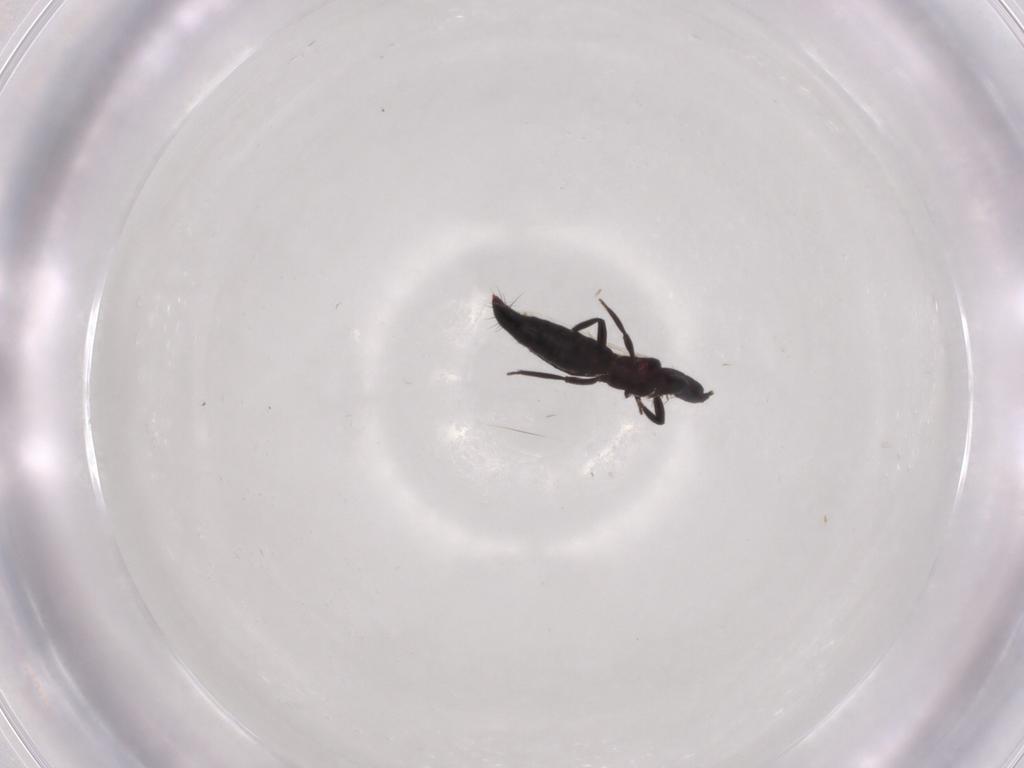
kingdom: Animalia
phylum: Arthropoda
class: Insecta
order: Thysanoptera
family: Aeolothripidae
